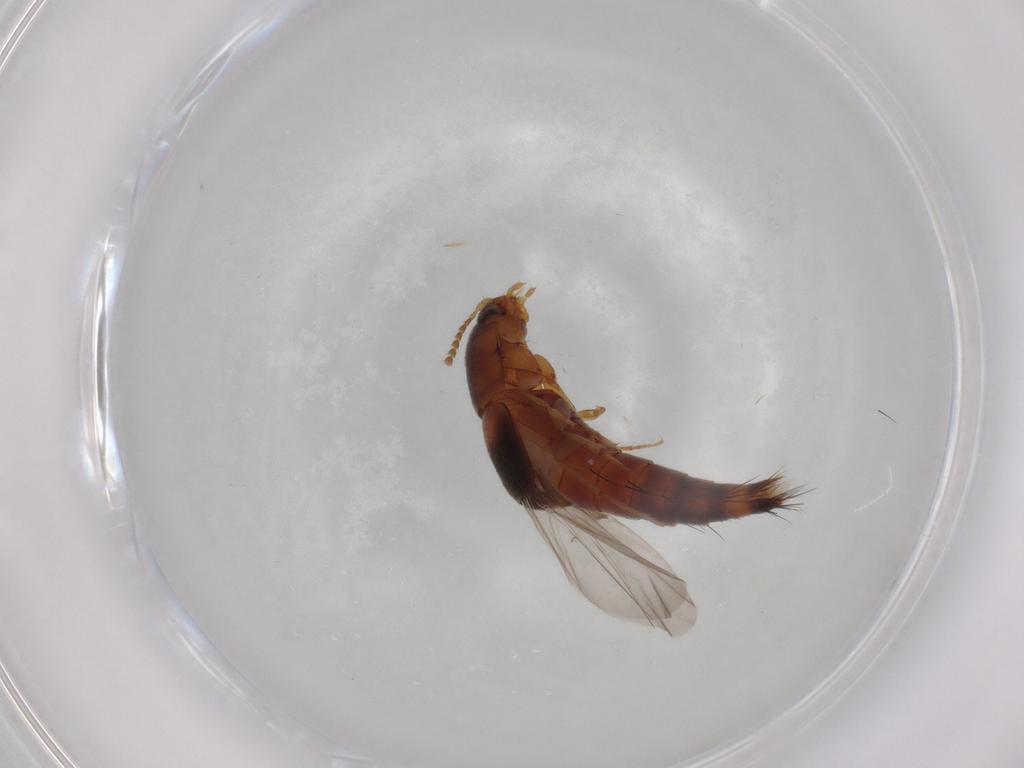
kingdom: Animalia
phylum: Arthropoda
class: Insecta
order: Coleoptera
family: Staphylinidae
